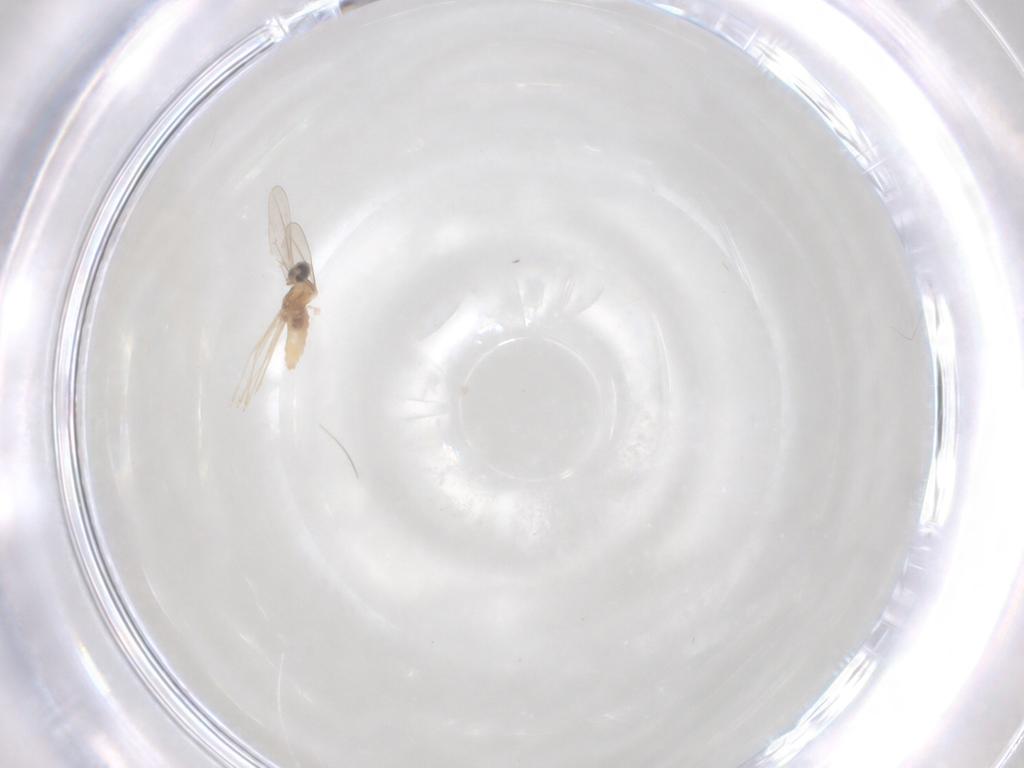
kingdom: Animalia
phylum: Arthropoda
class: Insecta
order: Diptera
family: Cecidomyiidae
